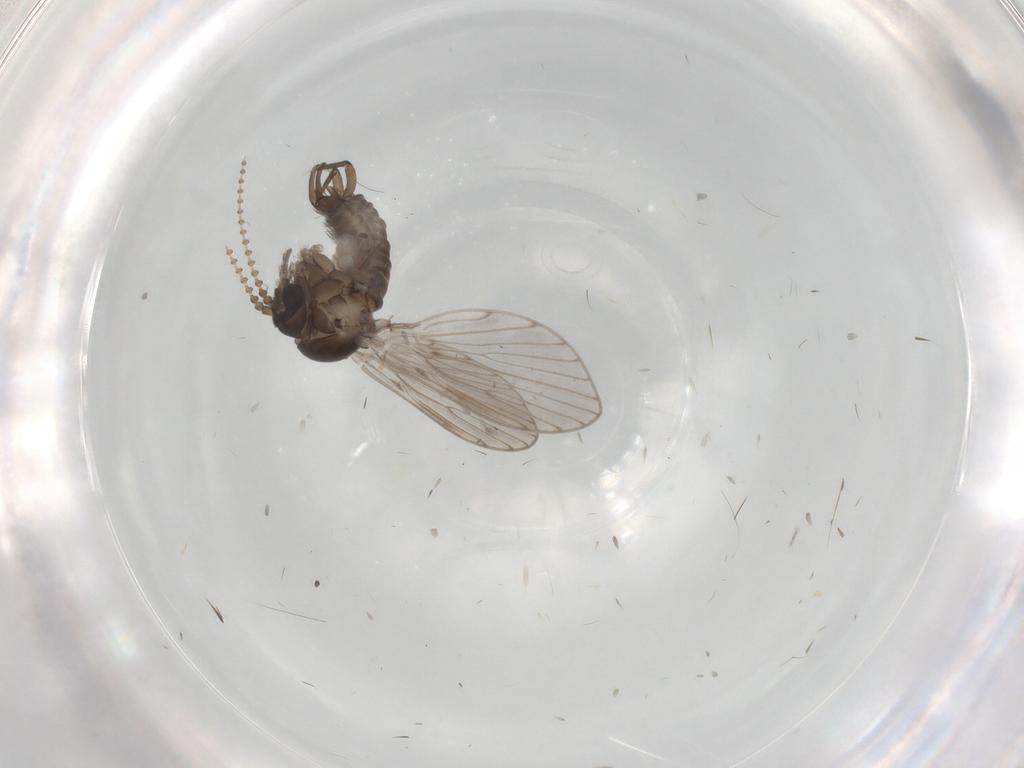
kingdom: Animalia
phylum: Arthropoda
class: Insecta
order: Diptera
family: Psychodidae
